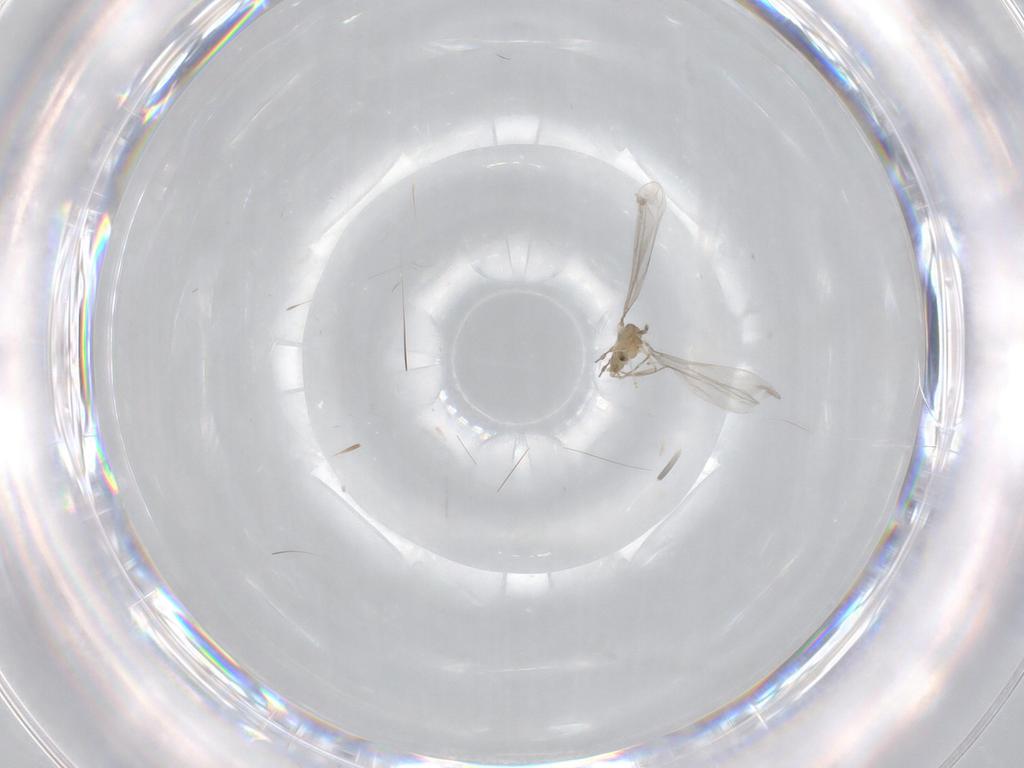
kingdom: Animalia
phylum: Arthropoda
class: Insecta
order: Diptera
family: Cecidomyiidae
